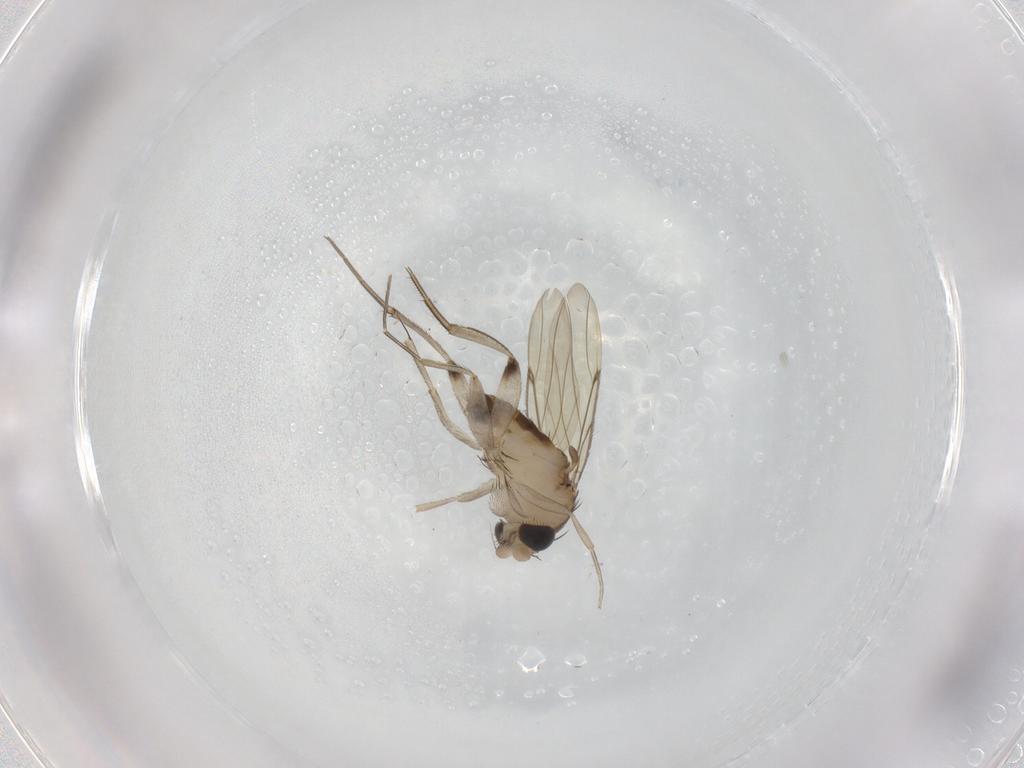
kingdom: Animalia
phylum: Arthropoda
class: Insecta
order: Diptera
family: Phoridae
